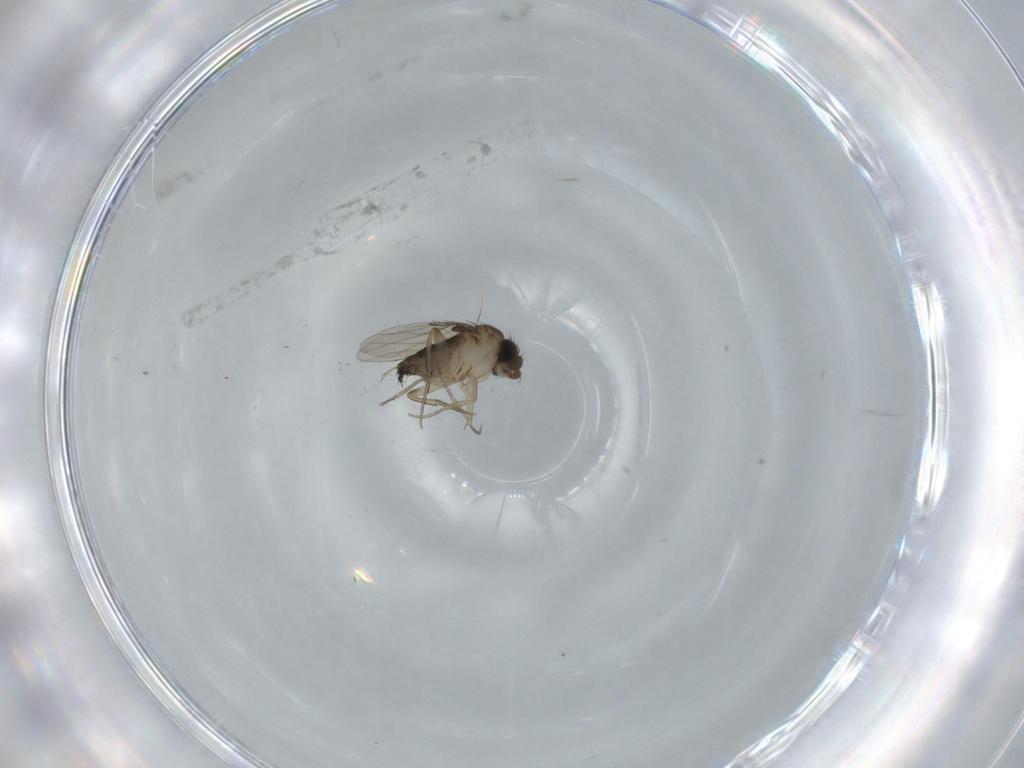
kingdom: Animalia
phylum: Arthropoda
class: Insecta
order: Diptera
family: Phoridae
